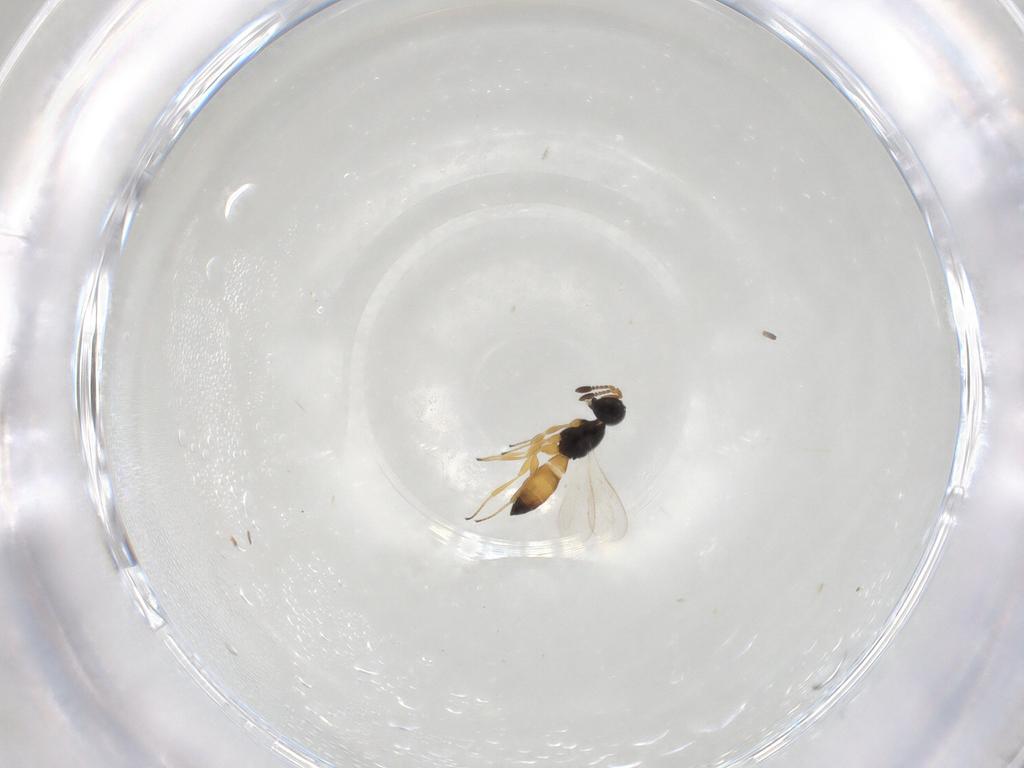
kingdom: Animalia
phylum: Arthropoda
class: Insecta
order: Hymenoptera
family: Scelionidae
